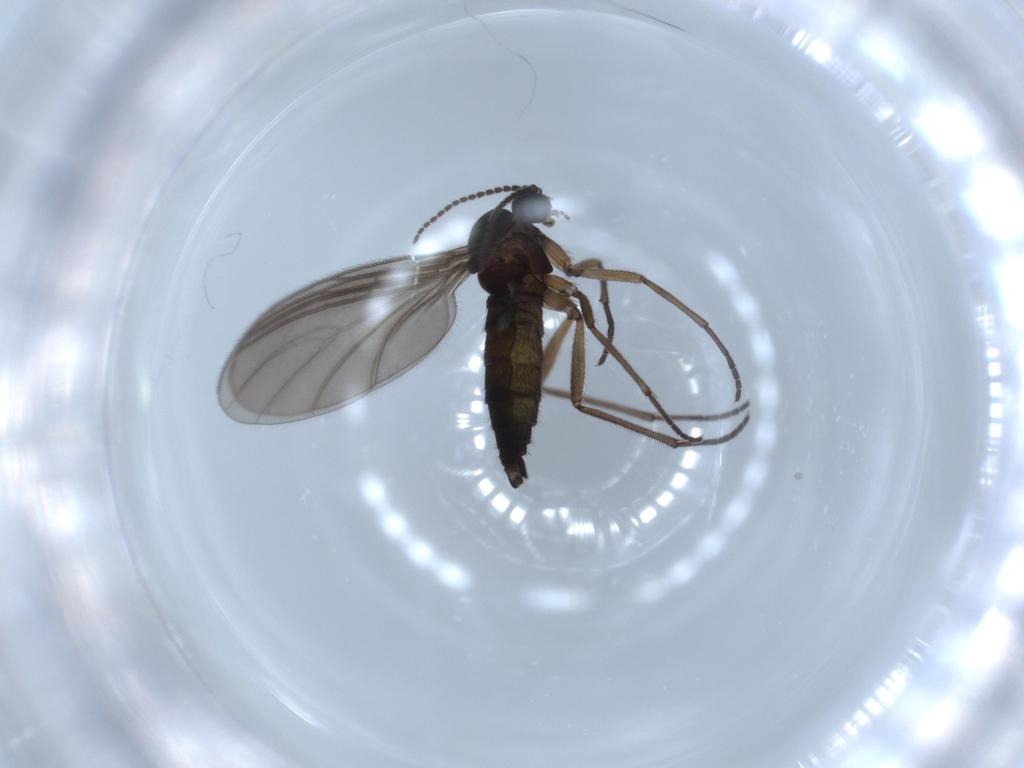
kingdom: Animalia
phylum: Arthropoda
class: Insecta
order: Diptera
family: Sciaridae
